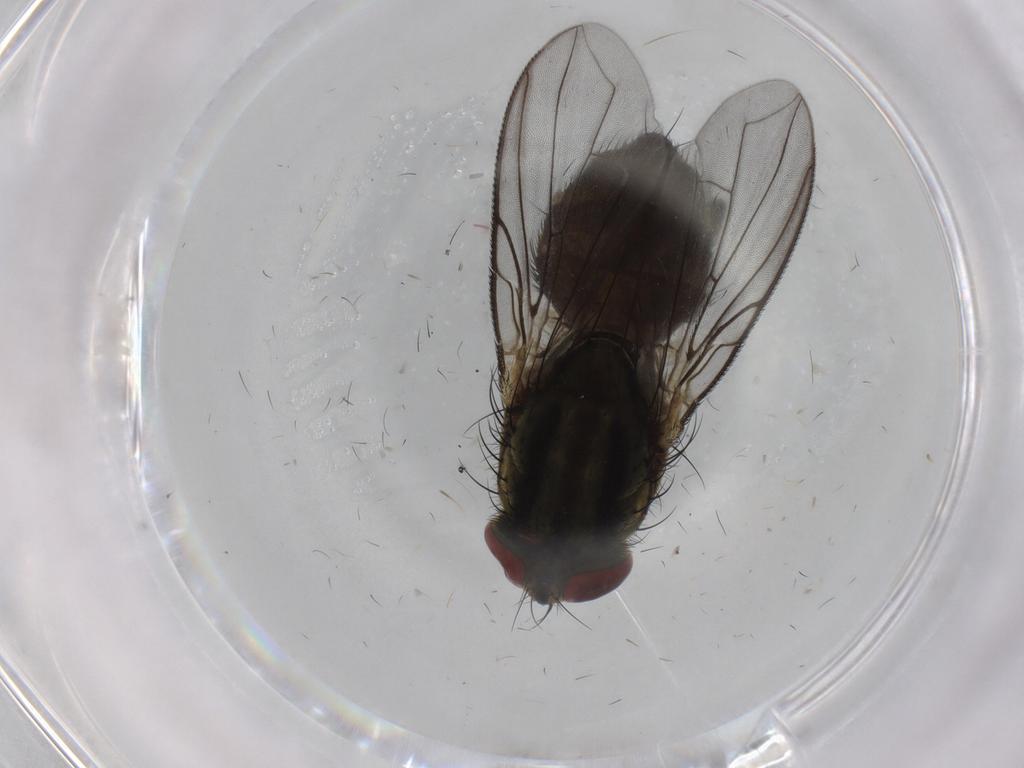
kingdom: Animalia
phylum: Arthropoda
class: Insecta
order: Diptera
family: Sarcophagidae
